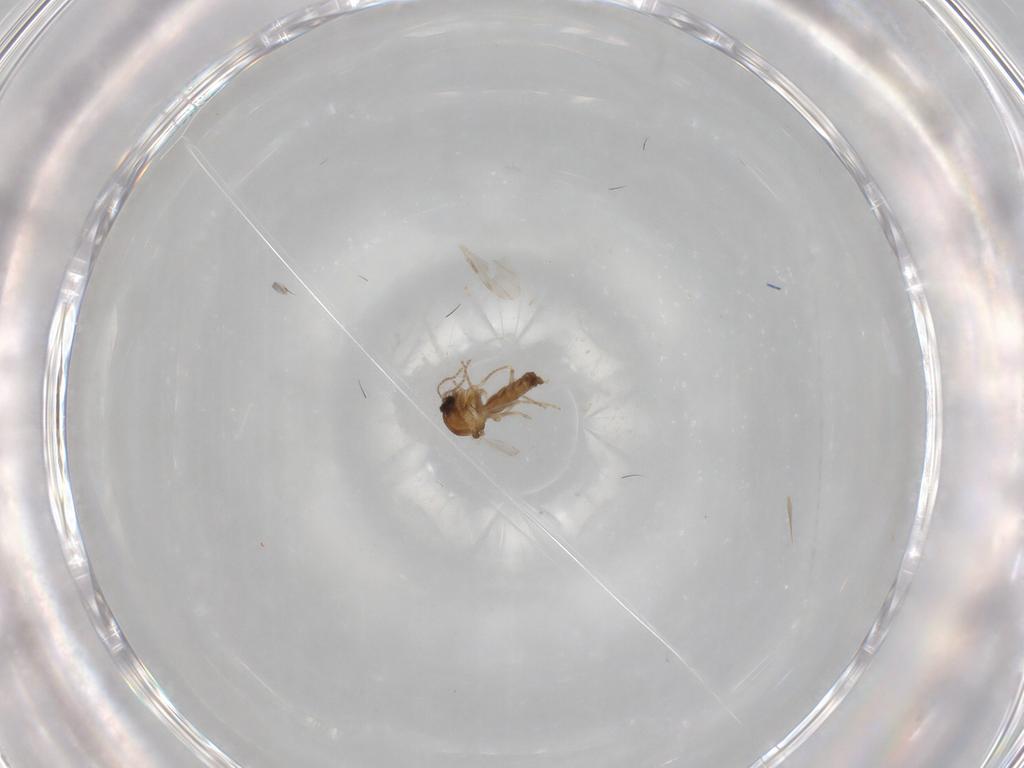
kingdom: Animalia
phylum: Arthropoda
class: Insecta
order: Diptera
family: Ceratopogonidae
